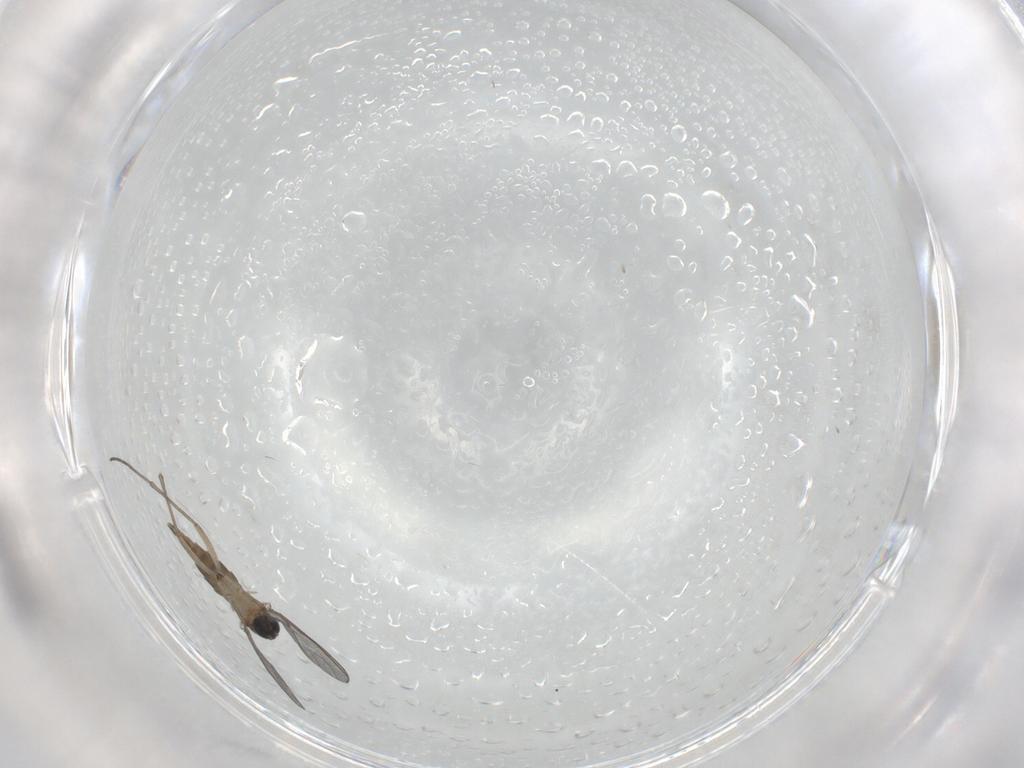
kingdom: Animalia
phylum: Arthropoda
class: Insecta
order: Diptera
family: Sciaridae
